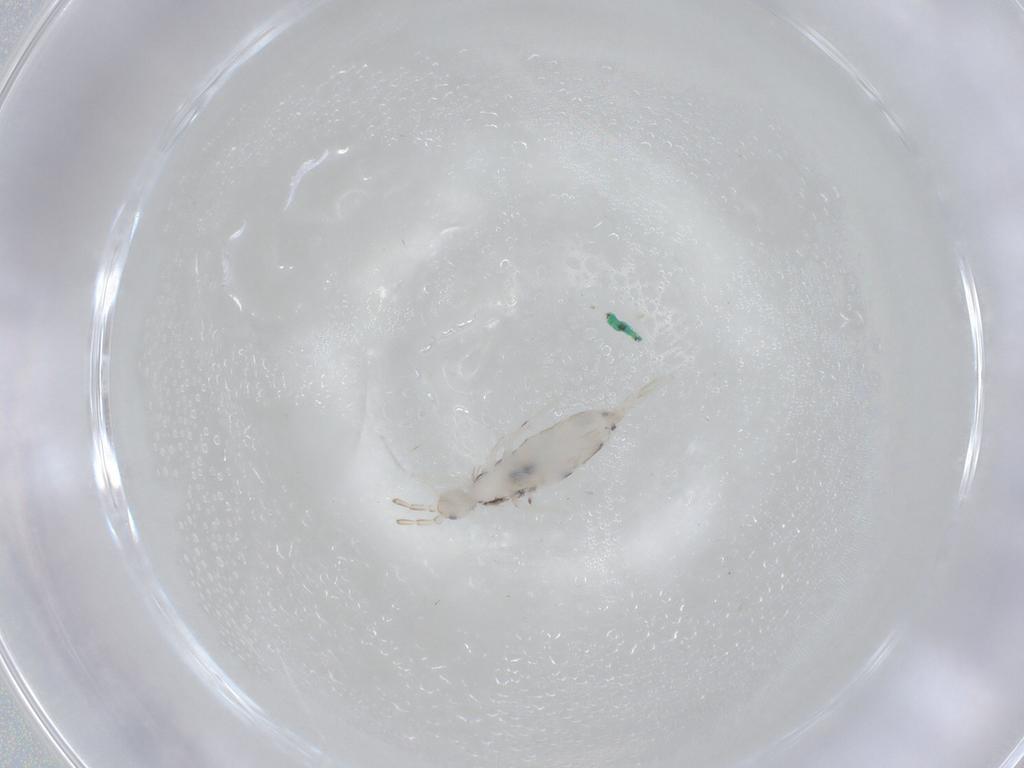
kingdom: Animalia
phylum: Arthropoda
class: Collembola
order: Entomobryomorpha
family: Entomobryidae
